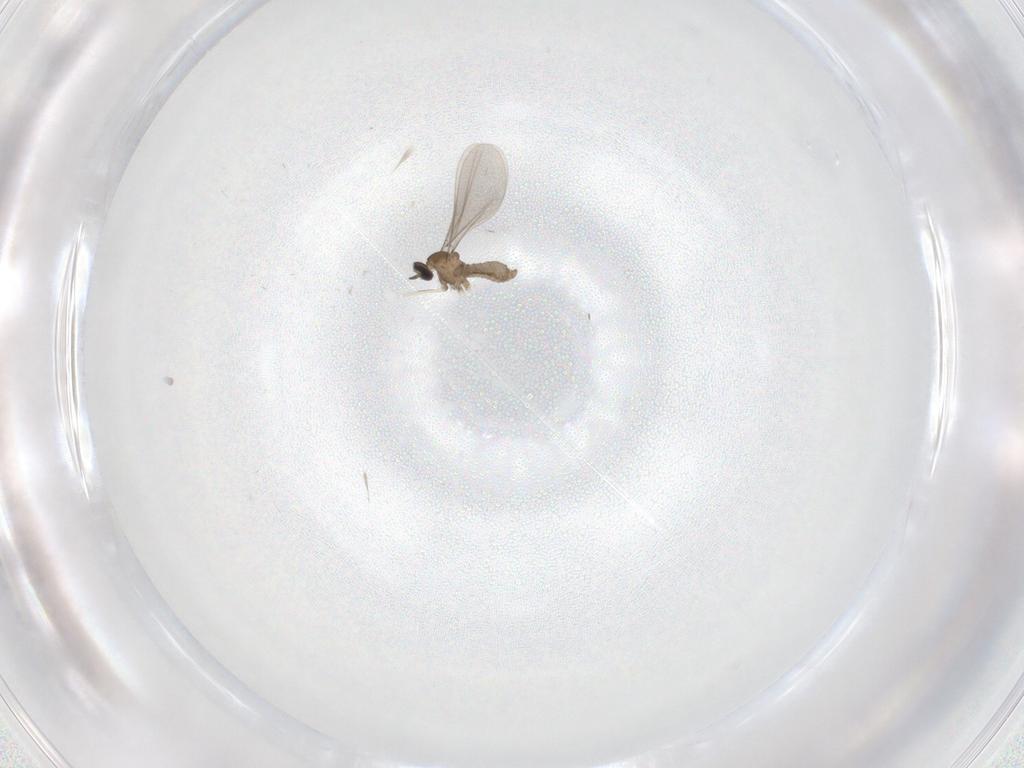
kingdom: Animalia
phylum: Arthropoda
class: Insecta
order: Diptera
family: Cecidomyiidae
